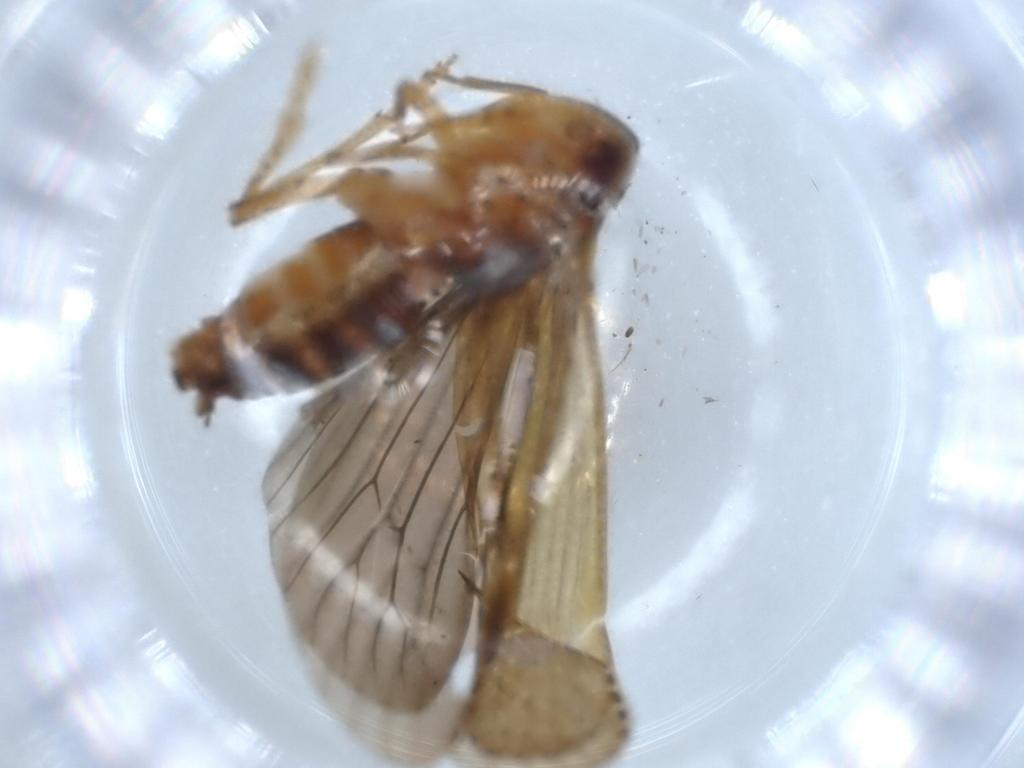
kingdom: Animalia
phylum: Arthropoda
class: Insecta
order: Hemiptera
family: Achilidae
